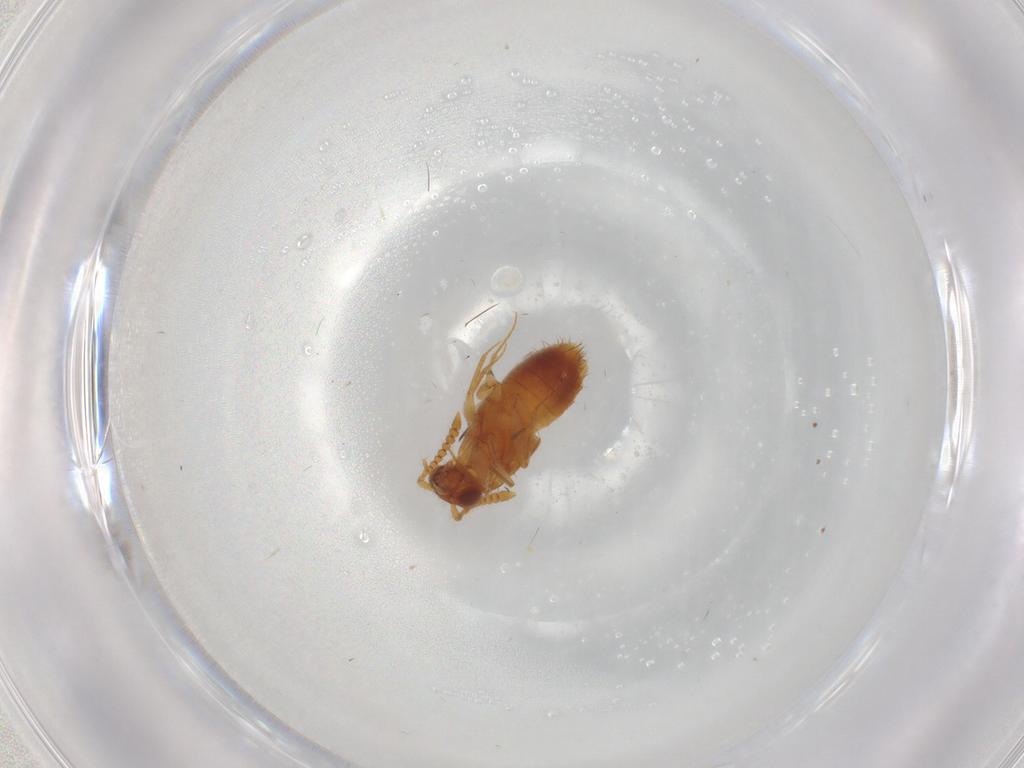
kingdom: Animalia
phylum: Arthropoda
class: Insecta
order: Coleoptera
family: Staphylinidae
